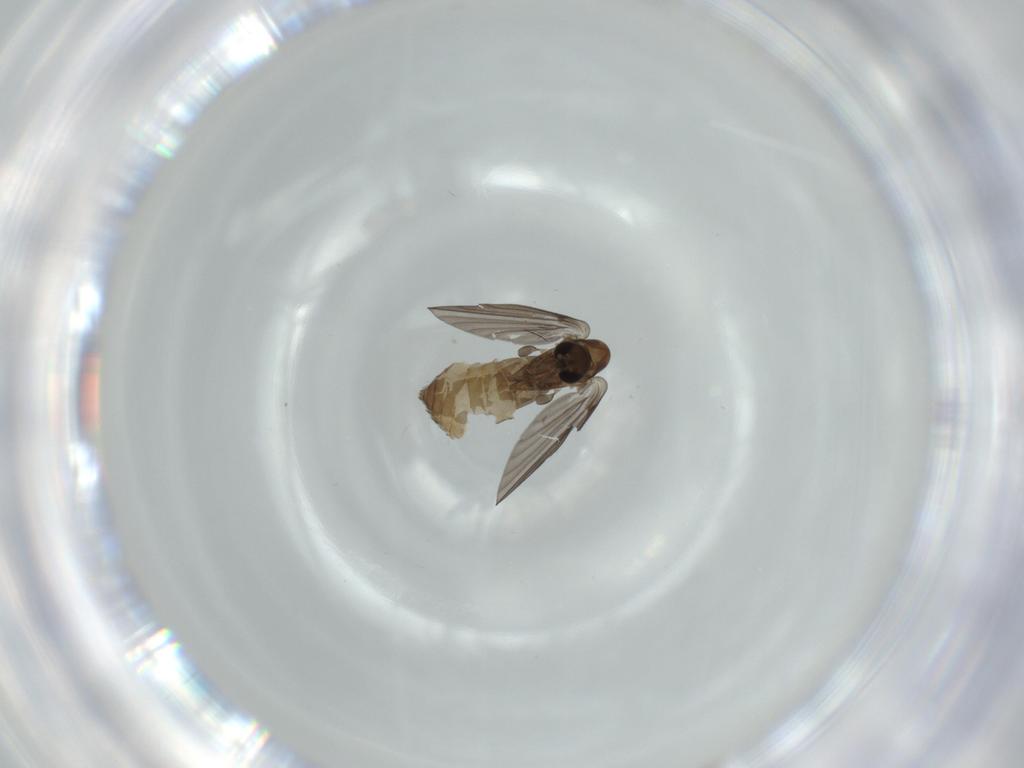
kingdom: Animalia
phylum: Arthropoda
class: Insecta
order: Diptera
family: Psychodidae
